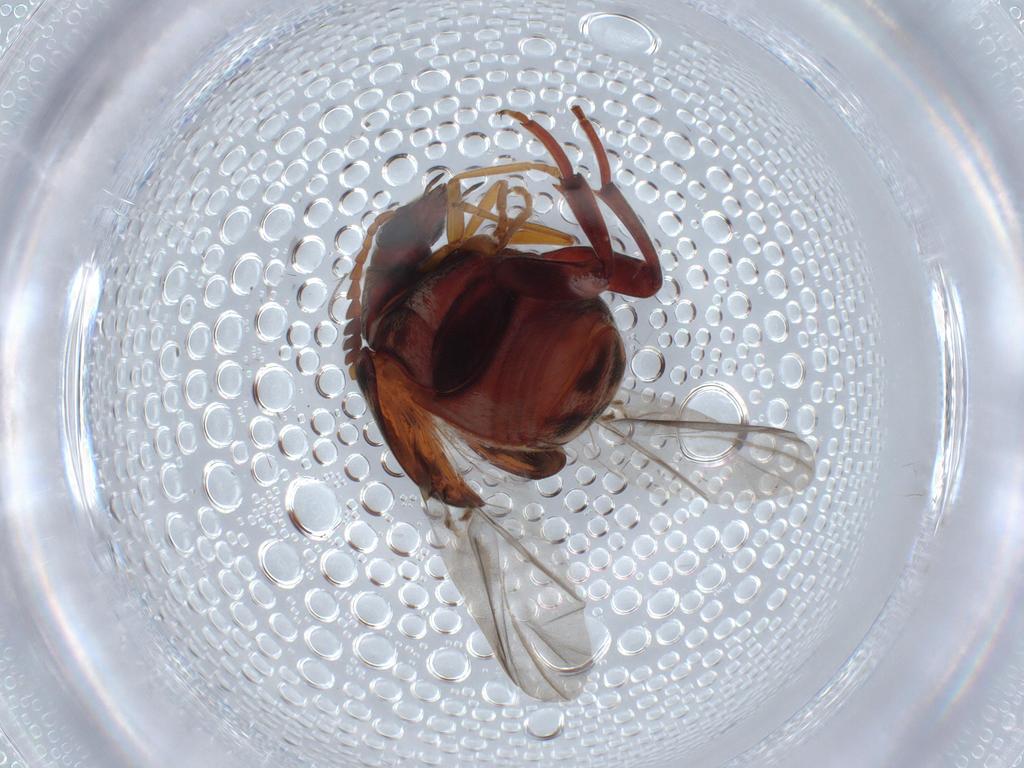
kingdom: Animalia
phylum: Arthropoda
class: Insecta
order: Coleoptera
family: Chrysomelidae
